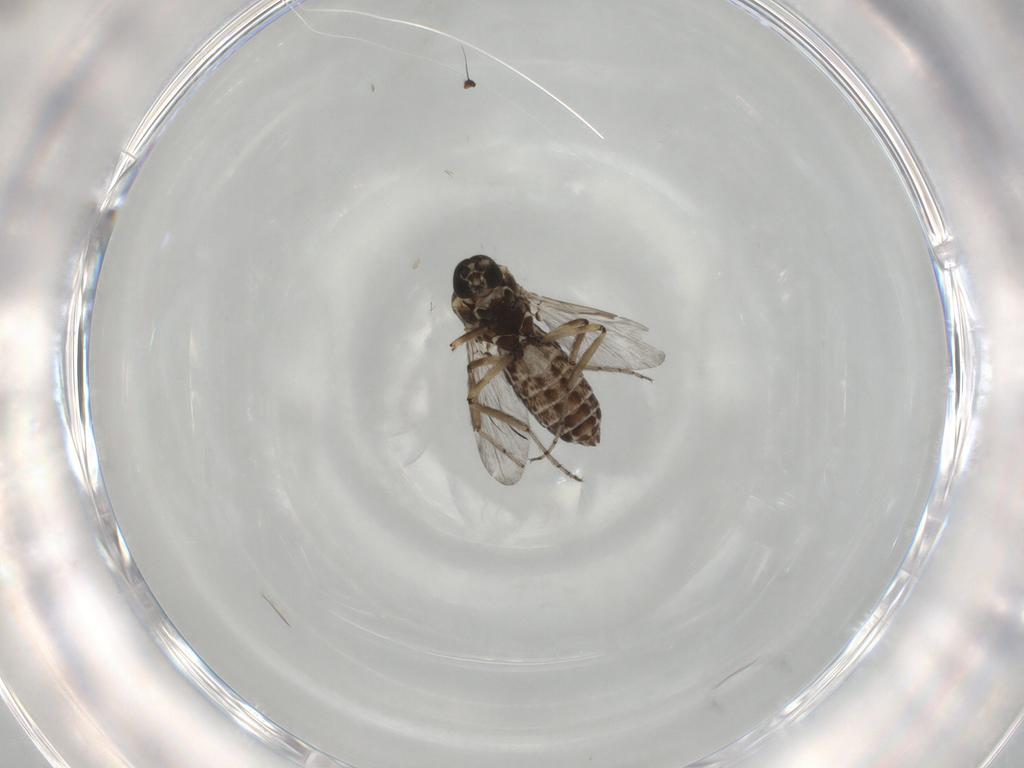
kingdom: Animalia
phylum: Arthropoda
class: Insecta
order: Diptera
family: Ceratopogonidae
